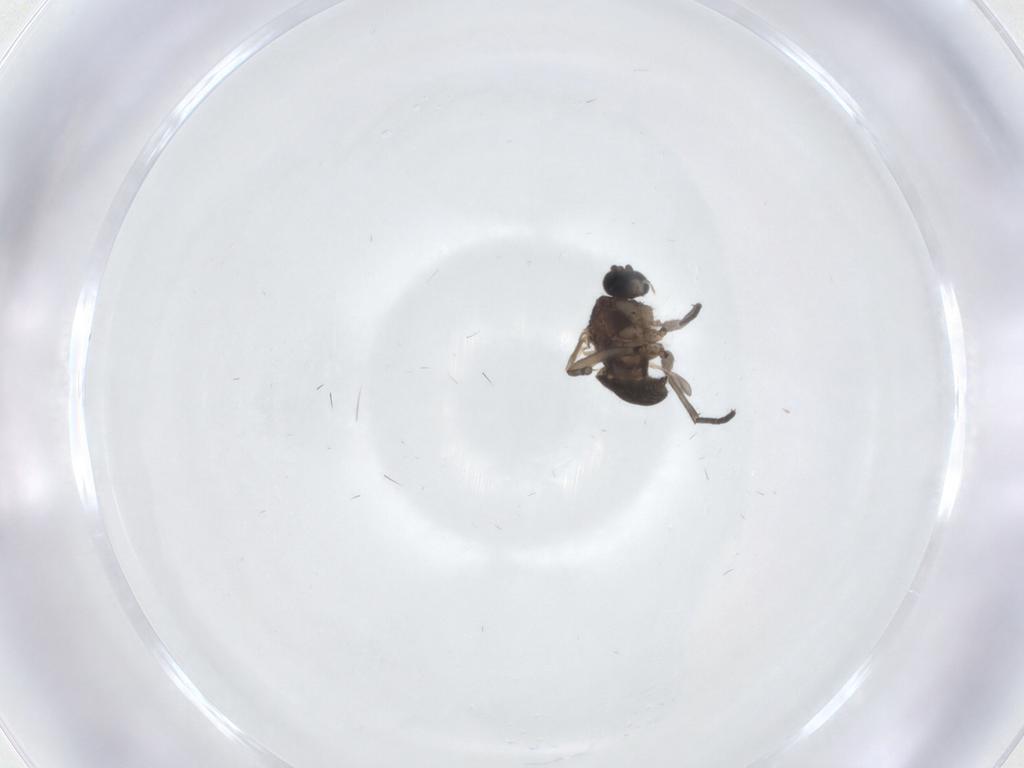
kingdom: Animalia
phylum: Arthropoda
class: Insecta
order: Diptera
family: Sciaridae
